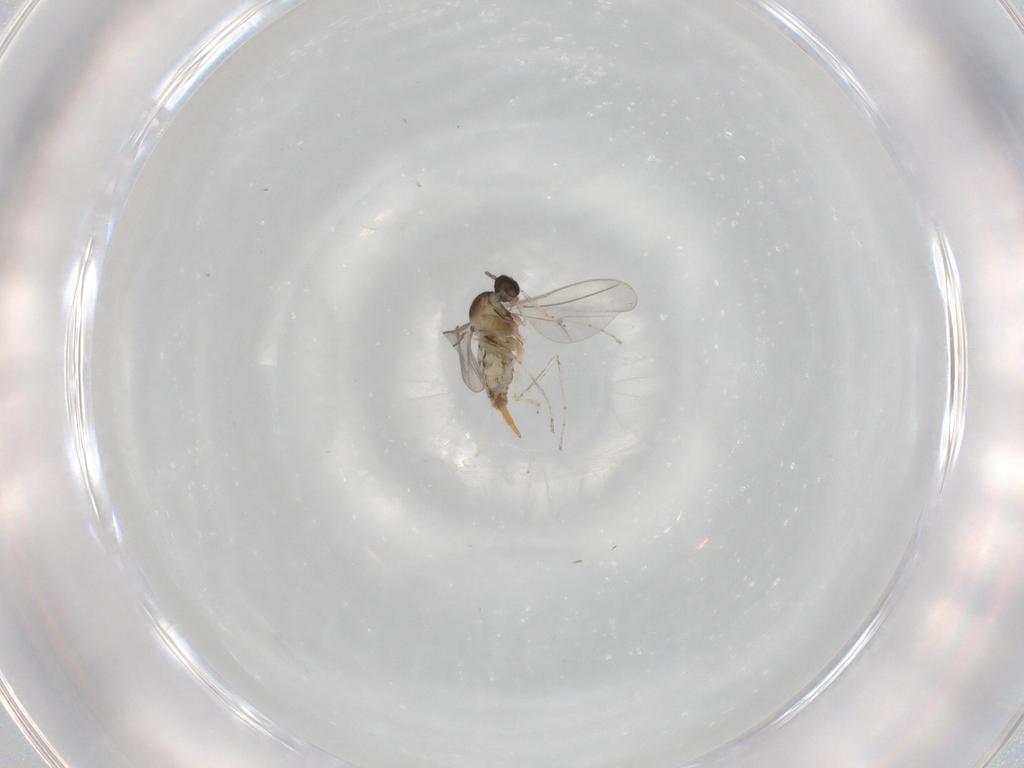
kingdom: Animalia
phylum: Arthropoda
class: Insecta
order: Diptera
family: Cecidomyiidae
